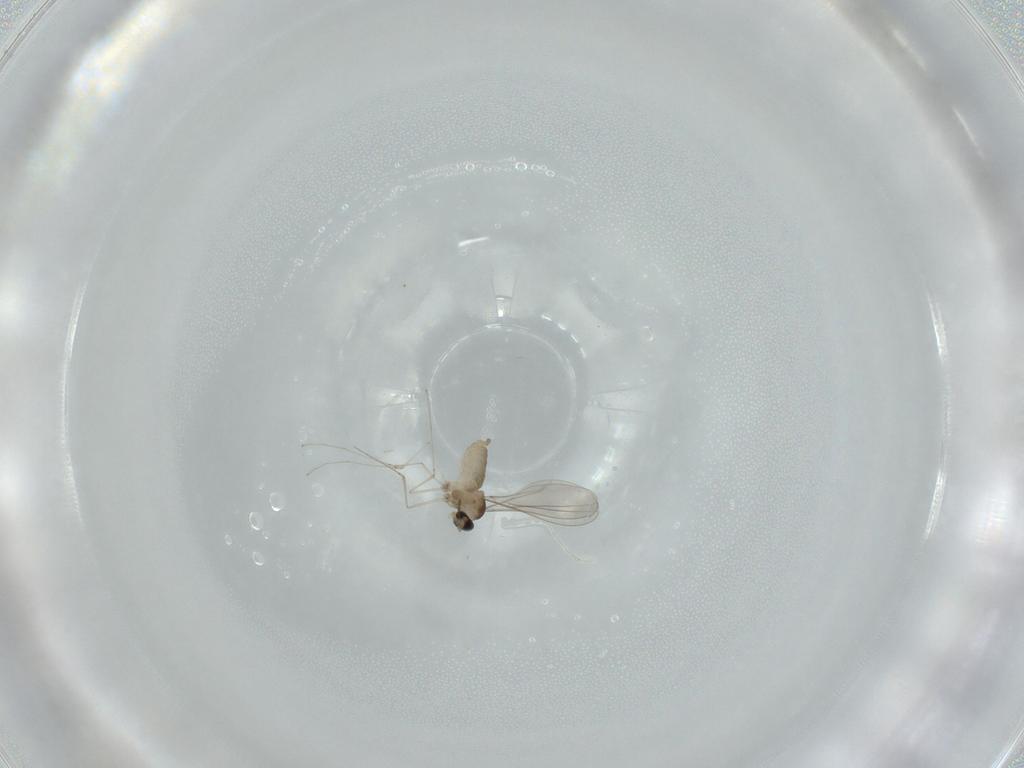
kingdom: Animalia
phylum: Arthropoda
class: Insecta
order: Diptera
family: Cecidomyiidae
